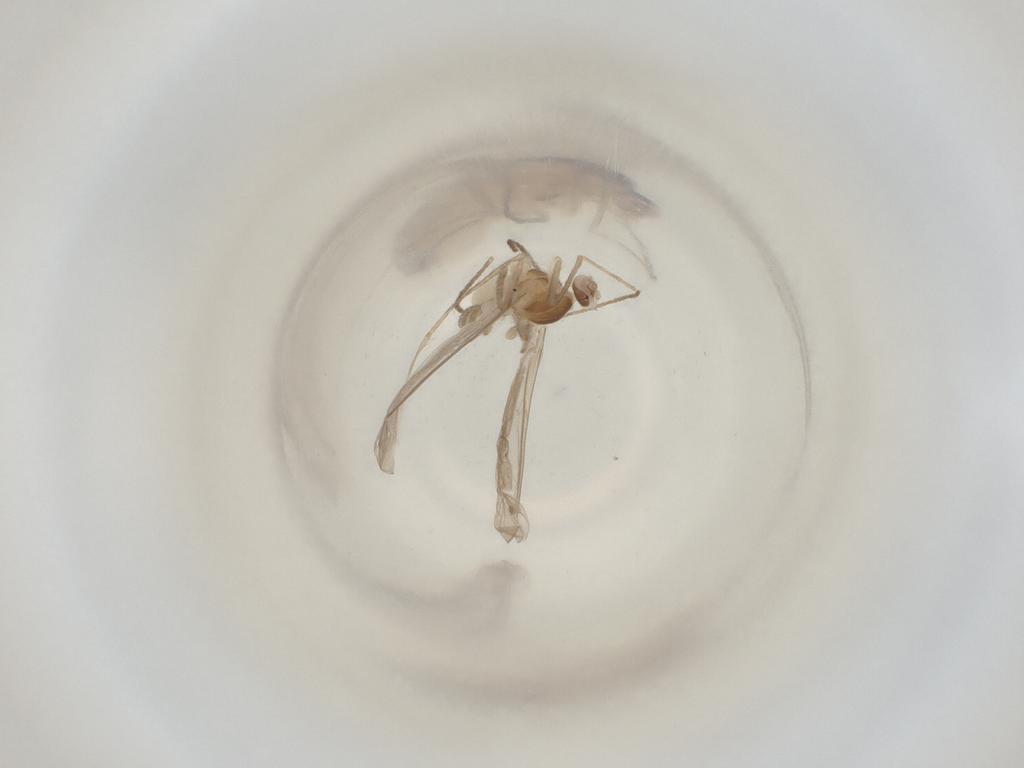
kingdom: Animalia
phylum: Arthropoda
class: Insecta
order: Diptera
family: Cecidomyiidae
